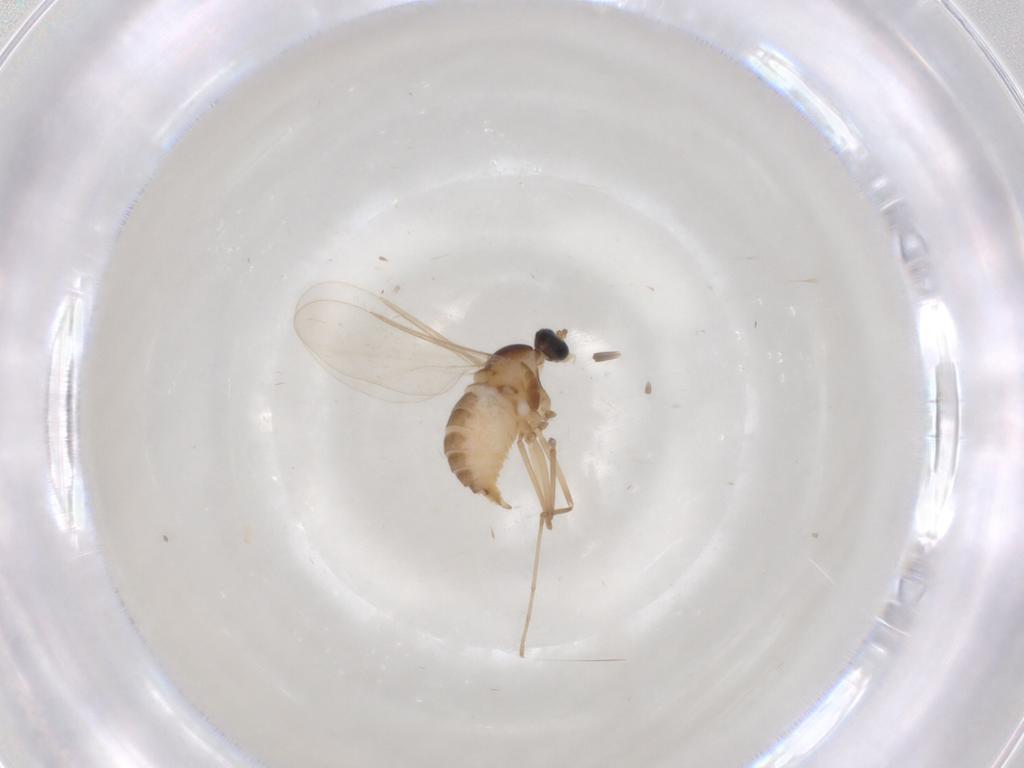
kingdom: Animalia
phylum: Arthropoda
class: Insecta
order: Diptera
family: Cecidomyiidae
